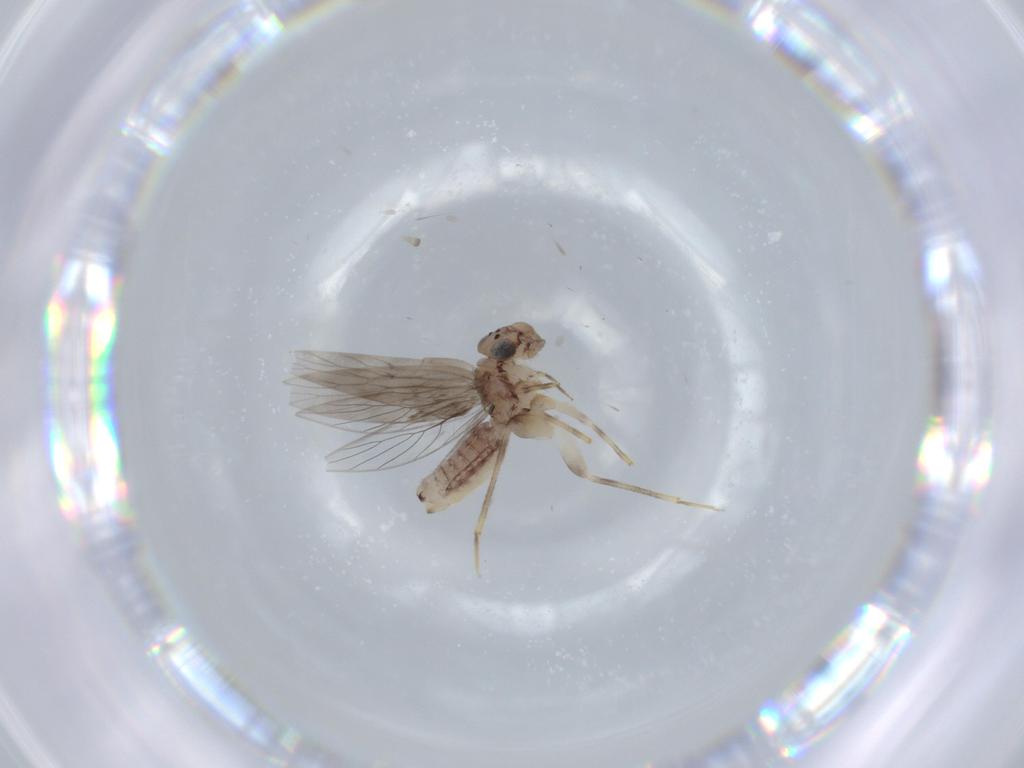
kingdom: Animalia
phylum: Arthropoda
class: Insecta
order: Psocodea
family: Lepidopsocidae
